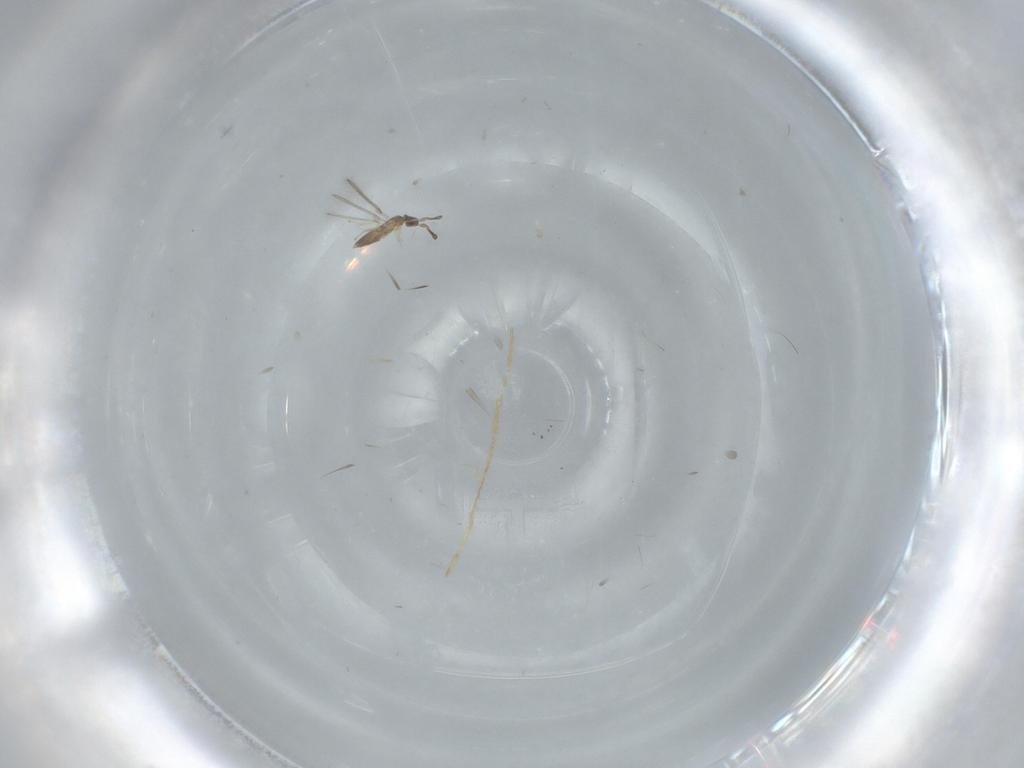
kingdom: Animalia
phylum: Arthropoda
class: Insecta
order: Hymenoptera
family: Mymaridae
